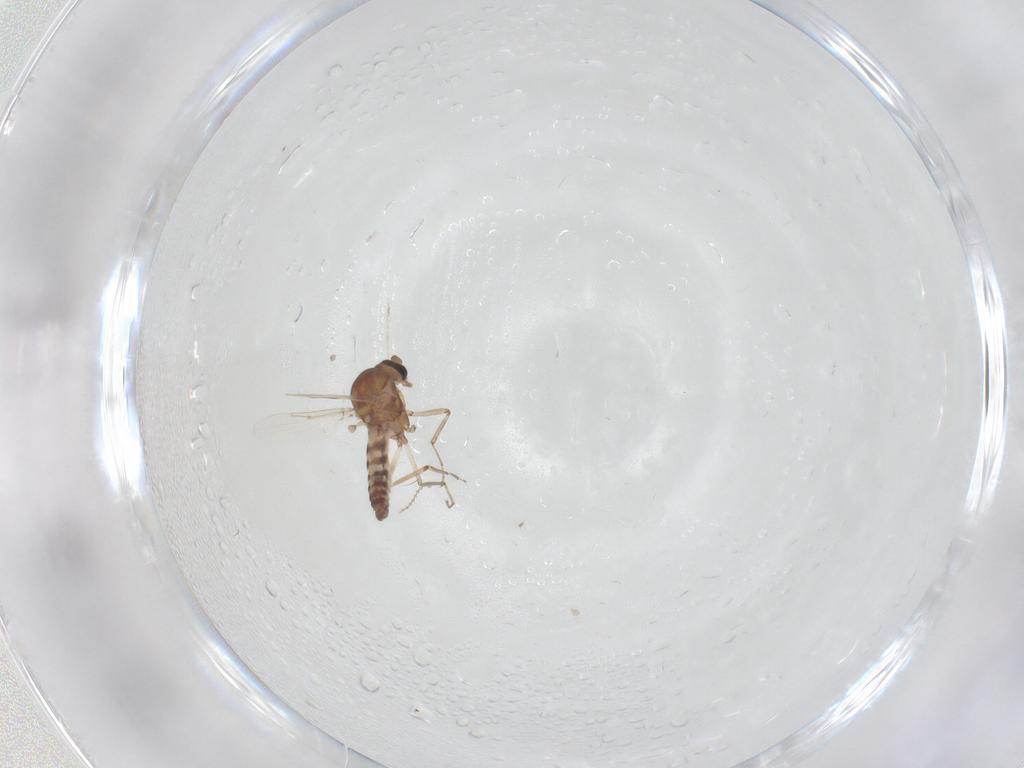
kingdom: Animalia
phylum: Arthropoda
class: Insecta
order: Diptera
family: Ceratopogonidae
